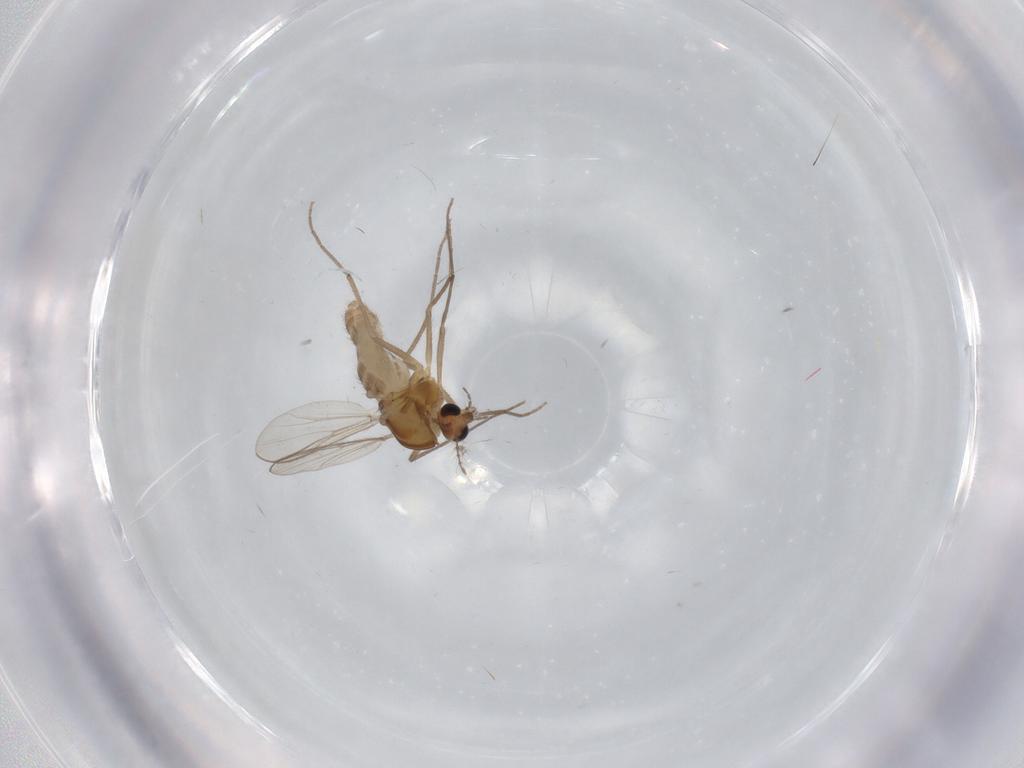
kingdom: Animalia
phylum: Arthropoda
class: Insecta
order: Diptera
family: Chironomidae
